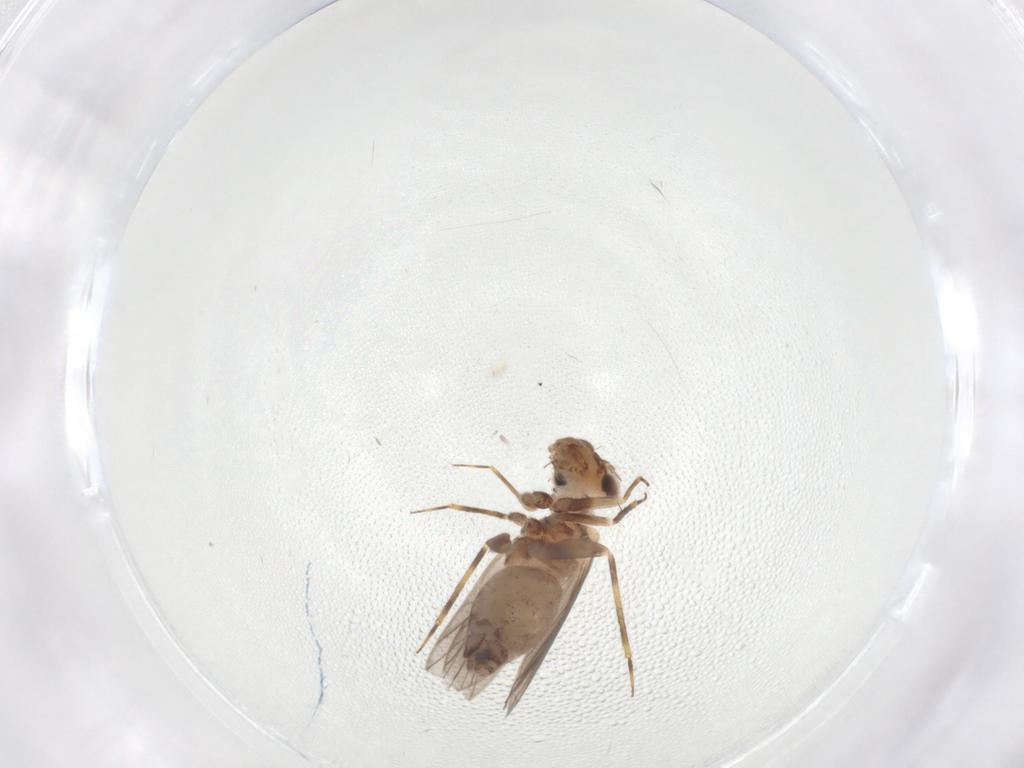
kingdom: Animalia
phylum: Arthropoda
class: Insecta
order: Psocodea
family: Lepidopsocidae
